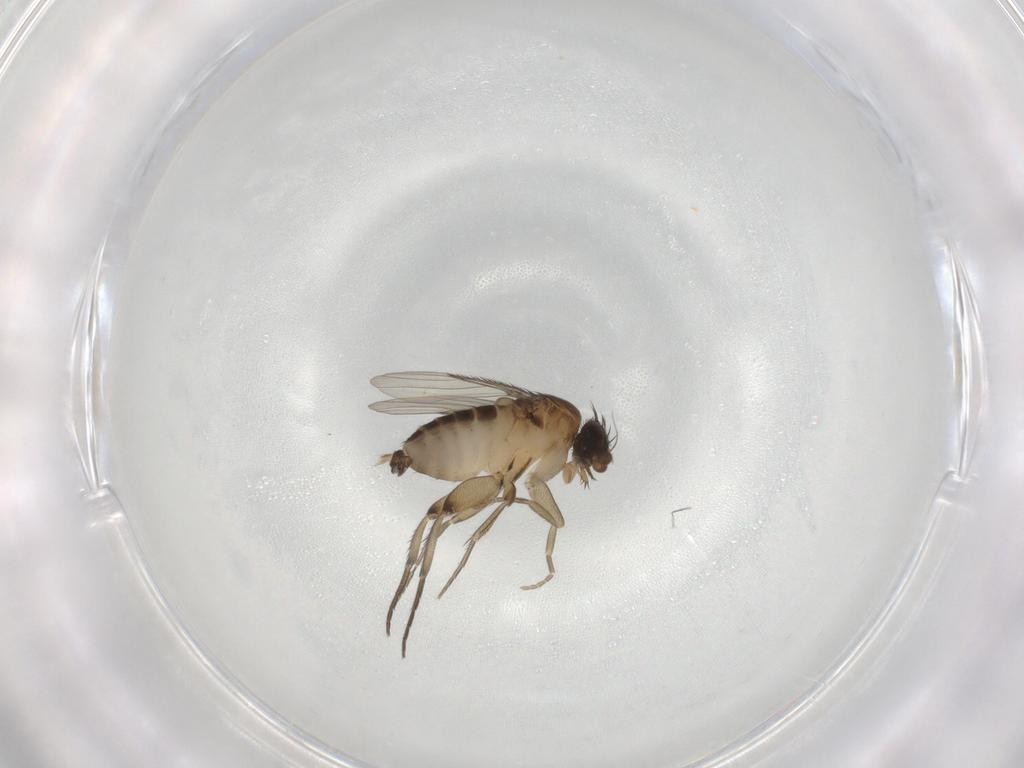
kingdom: Animalia
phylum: Arthropoda
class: Insecta
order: Diptera
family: Phoridae
